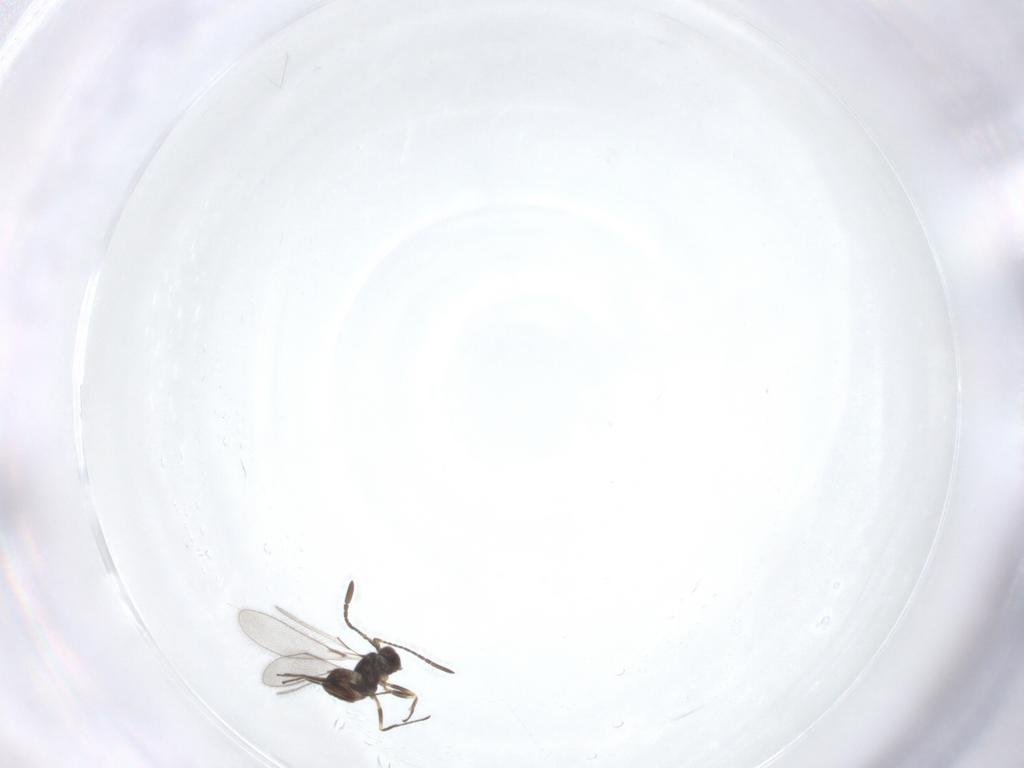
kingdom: Animalia
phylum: Arthropoda
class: Insecta
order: Hymenoptera
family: Mymaridae
